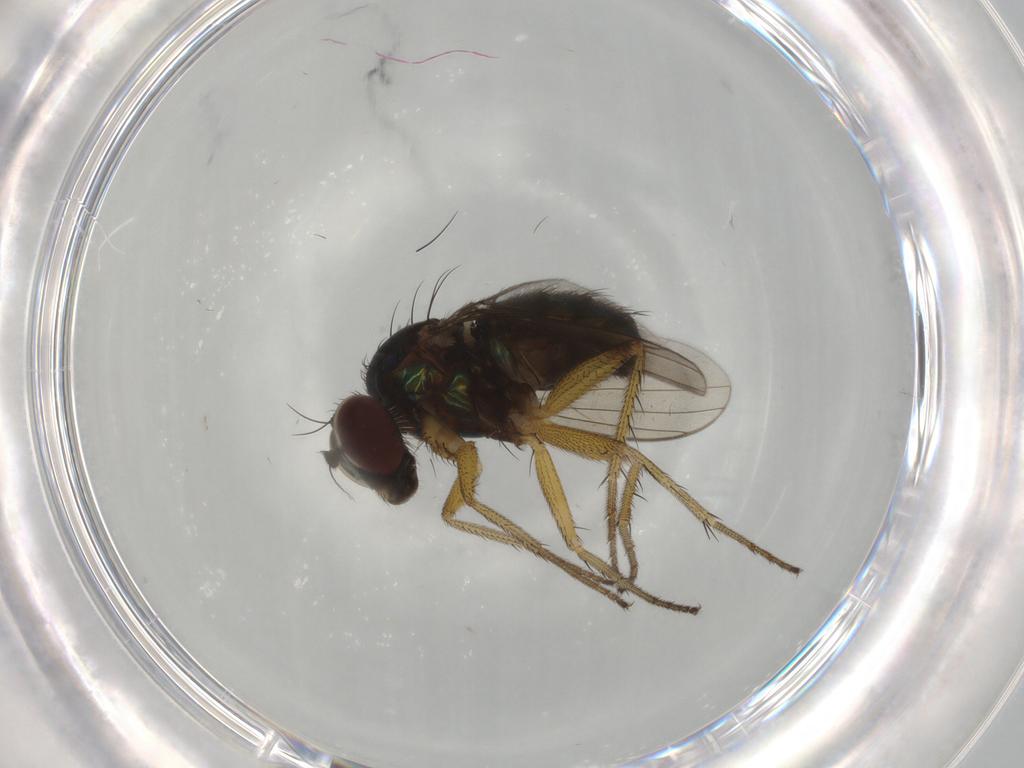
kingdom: Animalia
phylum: Arthropoda
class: Insecta
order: Diptera
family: Dolichopodidae
